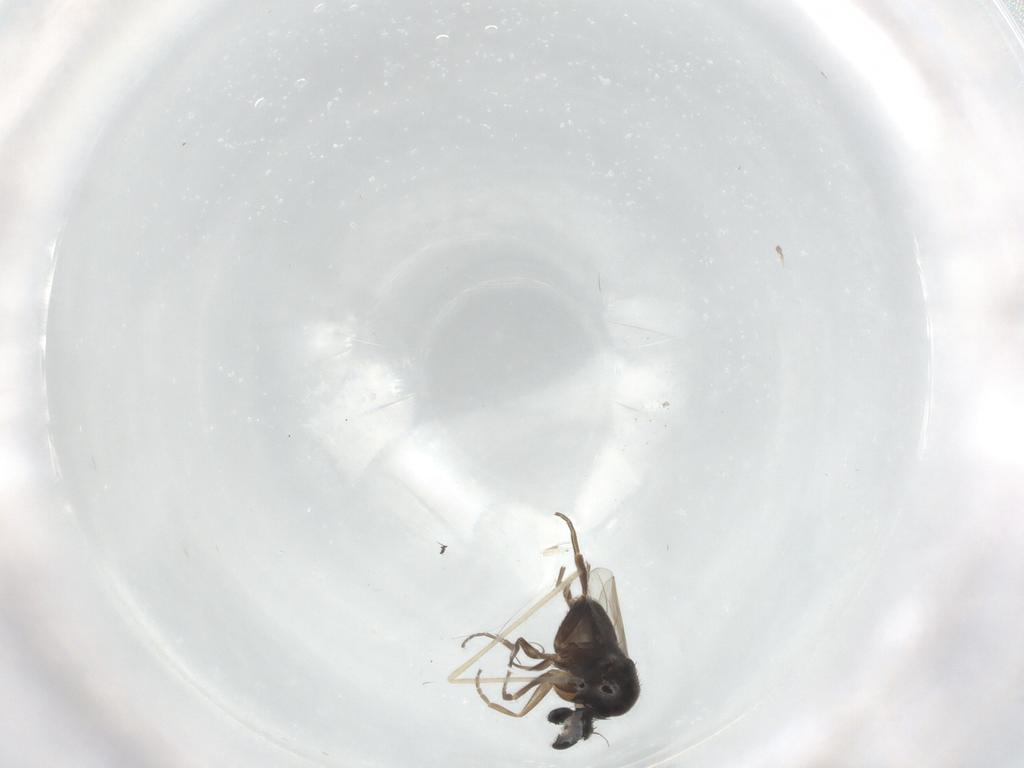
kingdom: Animalia
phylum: Arthropoda
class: Insecta
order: Diptera
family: Phoridae
